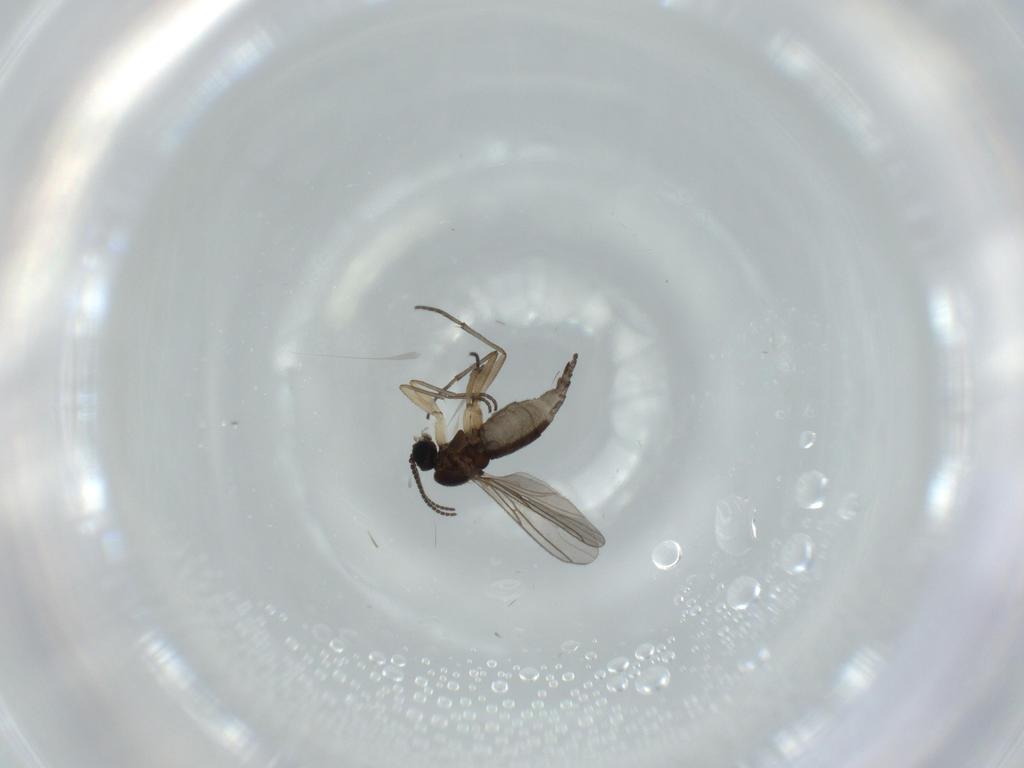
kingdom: Animalia
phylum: Arthropoda
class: Insecta
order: Diptera
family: Sciaridae
